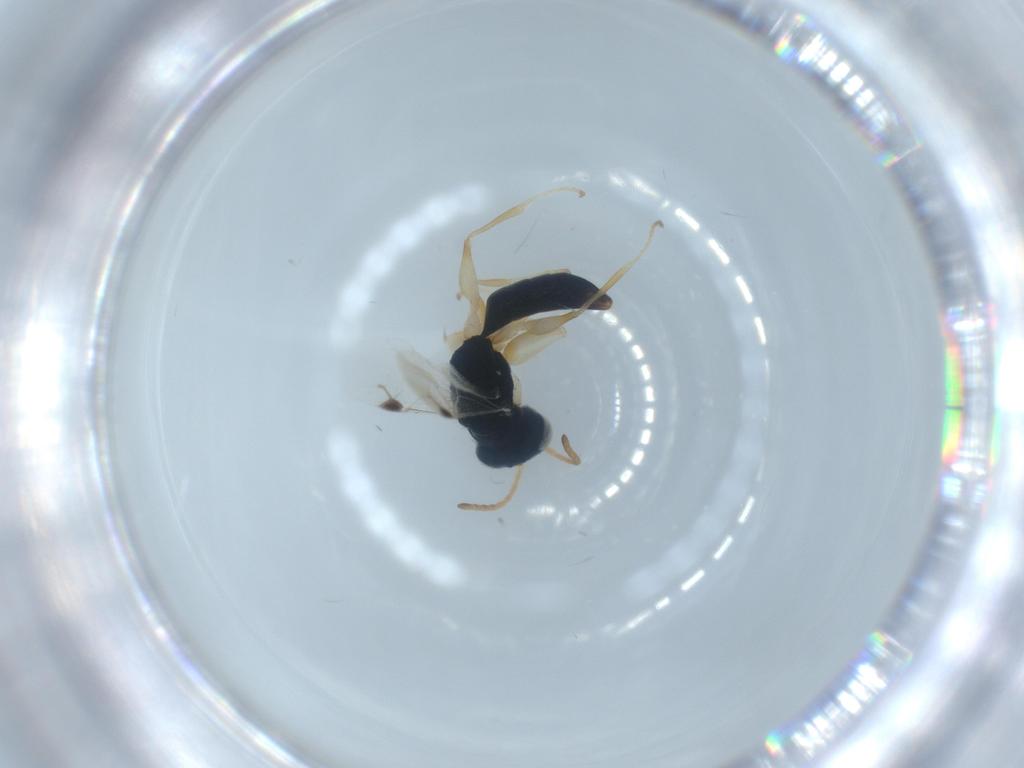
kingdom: Animalia
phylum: Arthropoda
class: Insecta
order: Hymenoptera
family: Dryinidae
